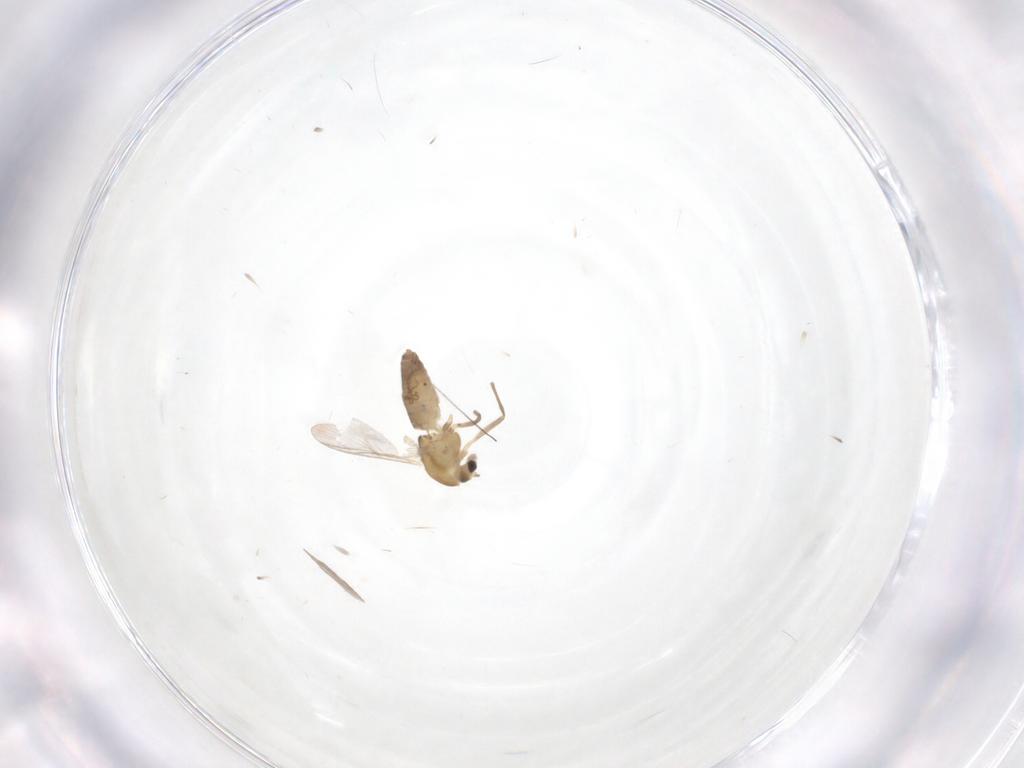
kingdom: Animalia
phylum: Arthropoda
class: Insecta
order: Diptera
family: Chironomidae
